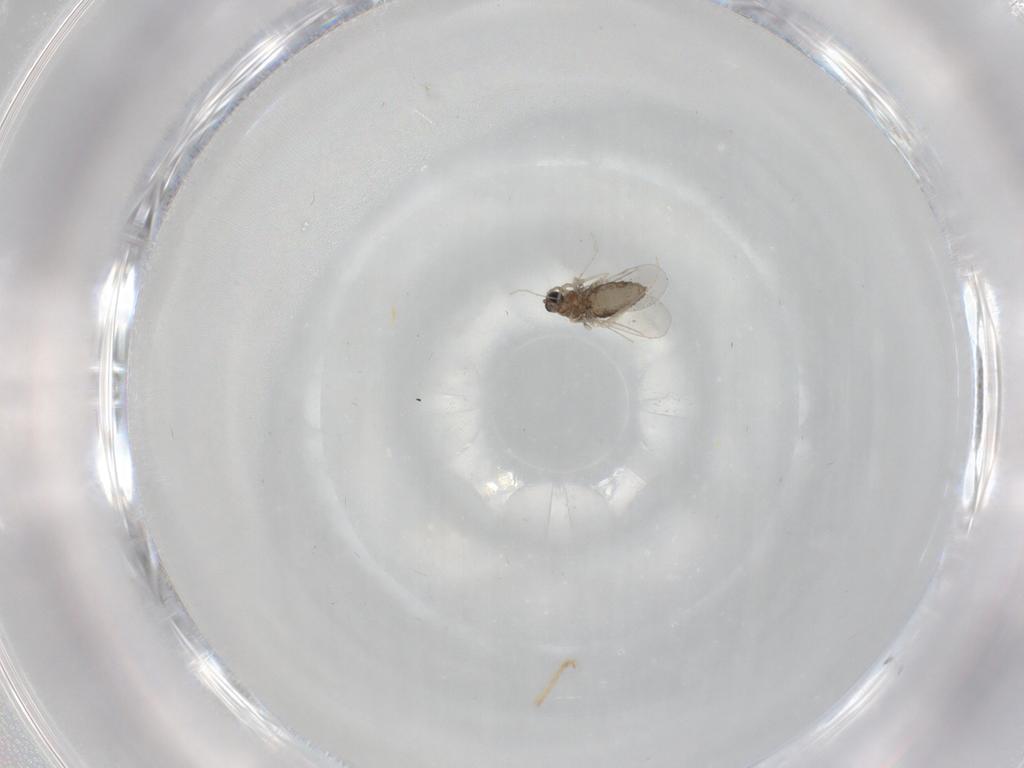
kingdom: Animalia
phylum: Arthropoda
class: Insecta
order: Diptera
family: Cecidomyiidae
